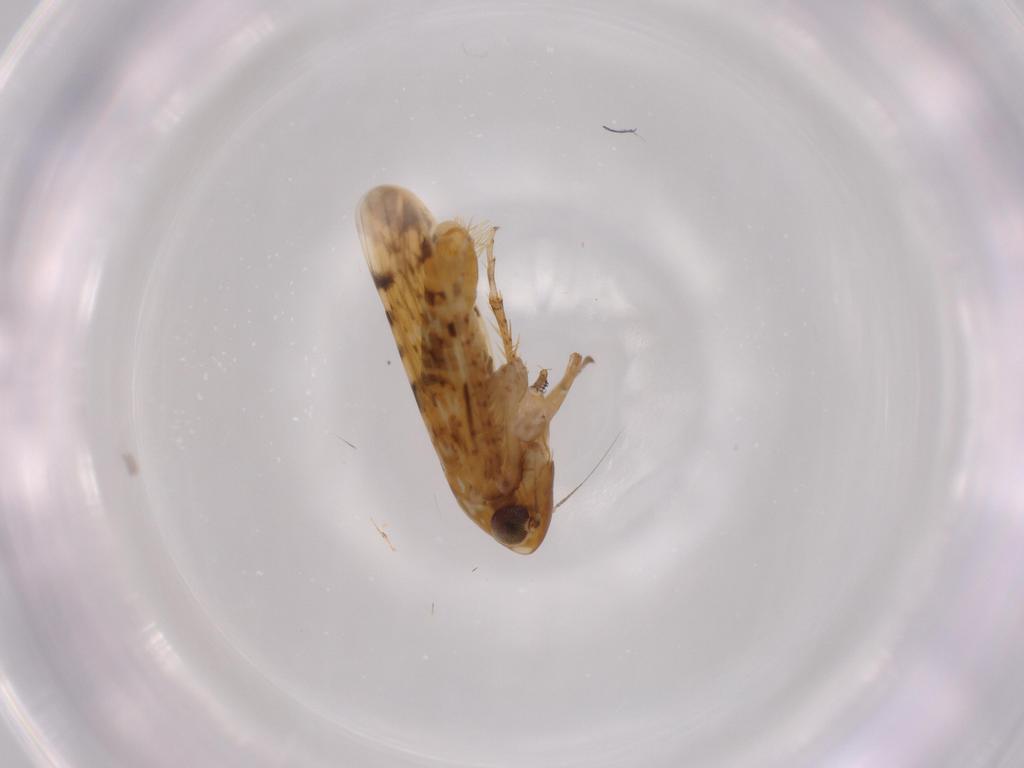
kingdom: Animalia
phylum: Arthropoda
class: Insecta
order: Hemiptera
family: Cicadellidae
